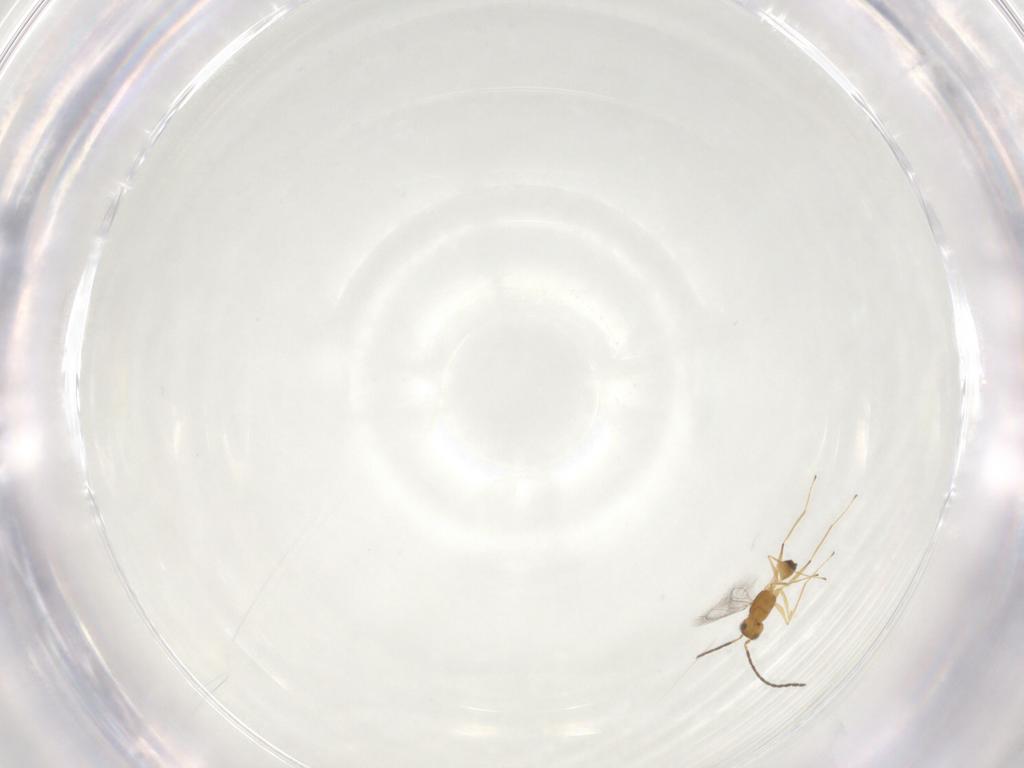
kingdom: Animalia
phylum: Arthropoda
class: Insecta
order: Hymenoptera
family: Mymaridae
